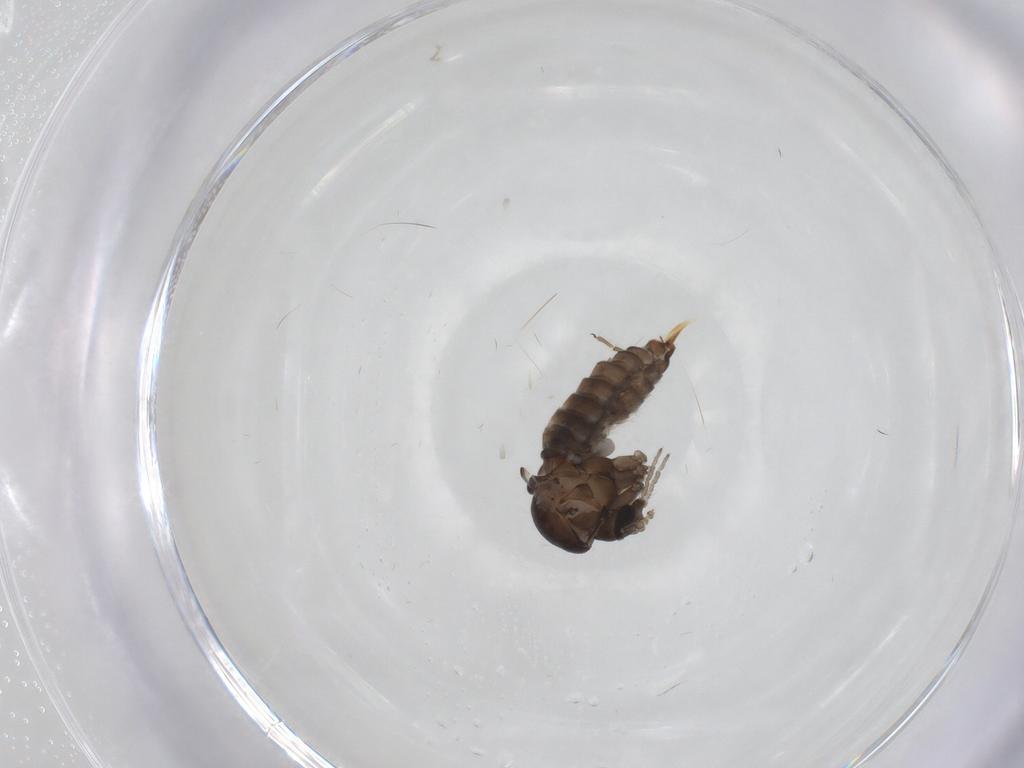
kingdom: Animalia
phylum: Arthropoda
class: Insecta
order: Diptera
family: Psychodidae
